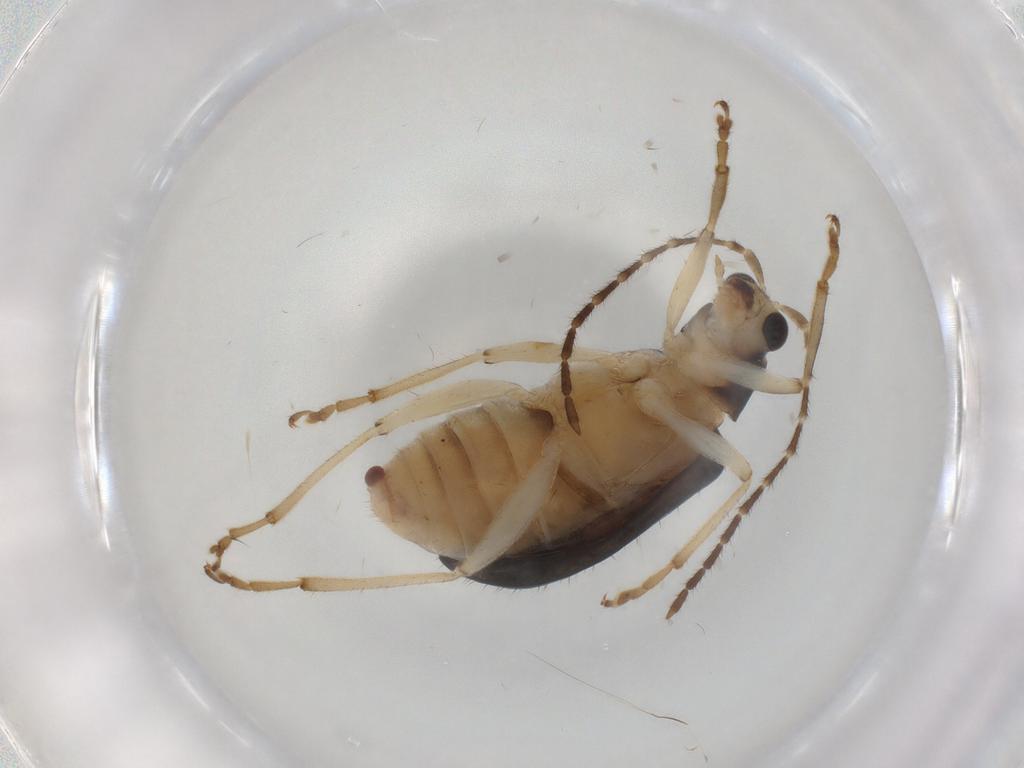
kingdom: Animalia
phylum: Arthropoda
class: Insecta
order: Coleoptera
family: Chrysomelidae
